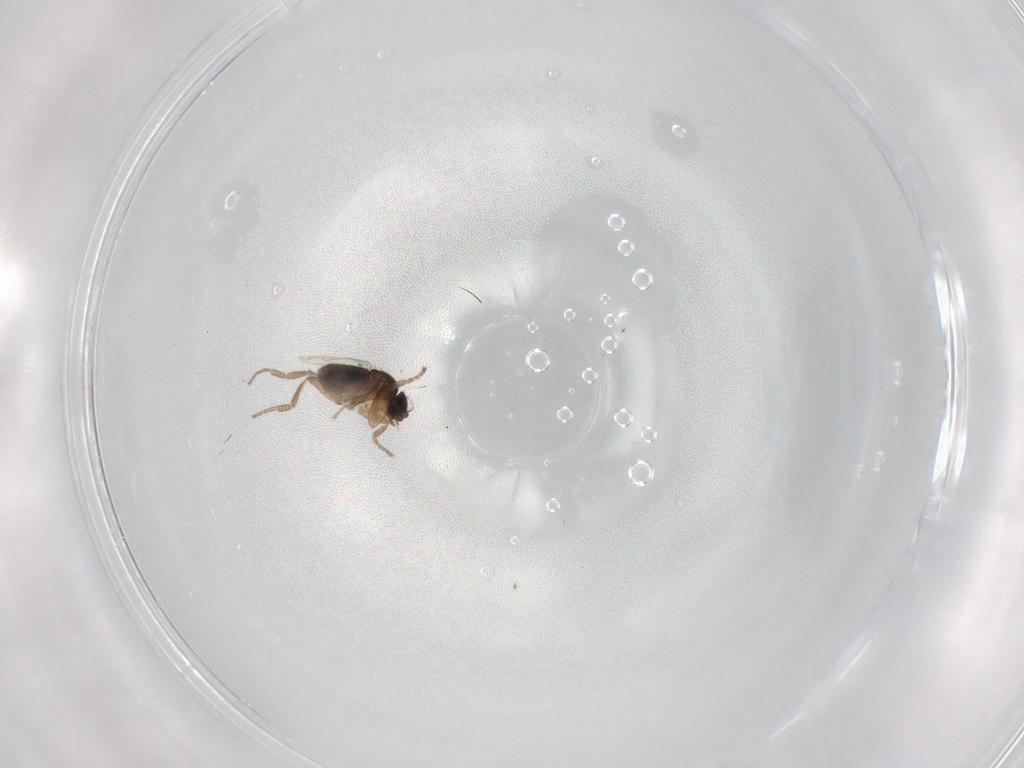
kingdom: Animalia
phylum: Arthropoda
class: Insecta
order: Diptera
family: Phoridae
